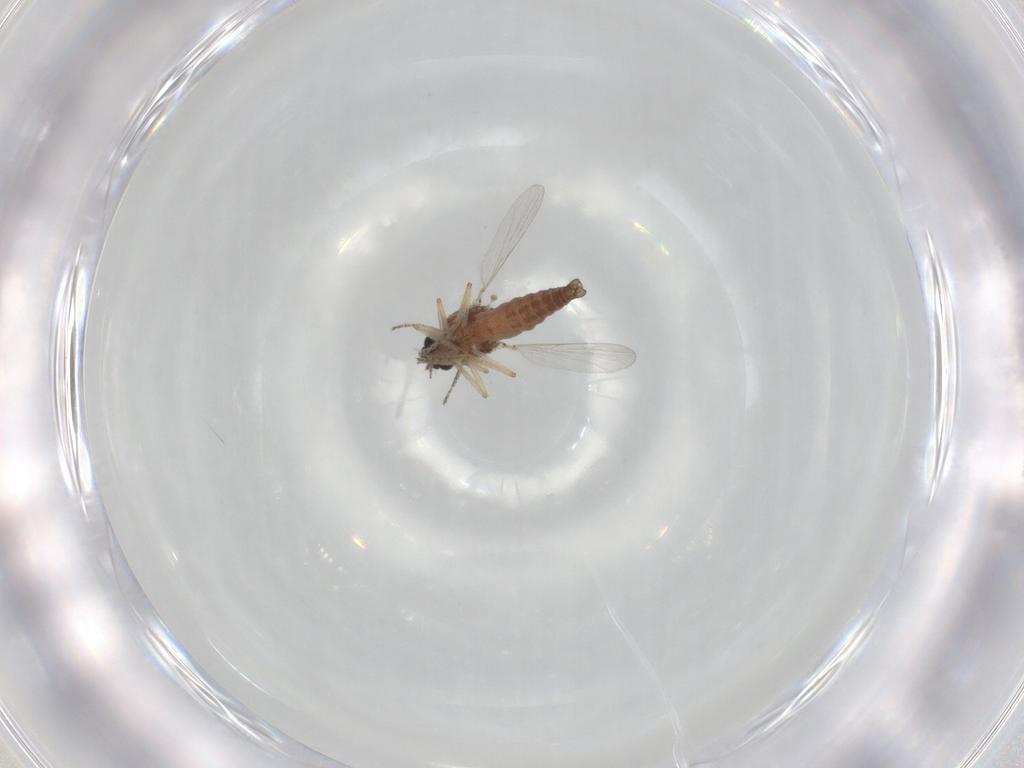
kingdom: Animalia
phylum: Arthropoda
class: Insecta
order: Diptera
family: Ceratopogonidae
